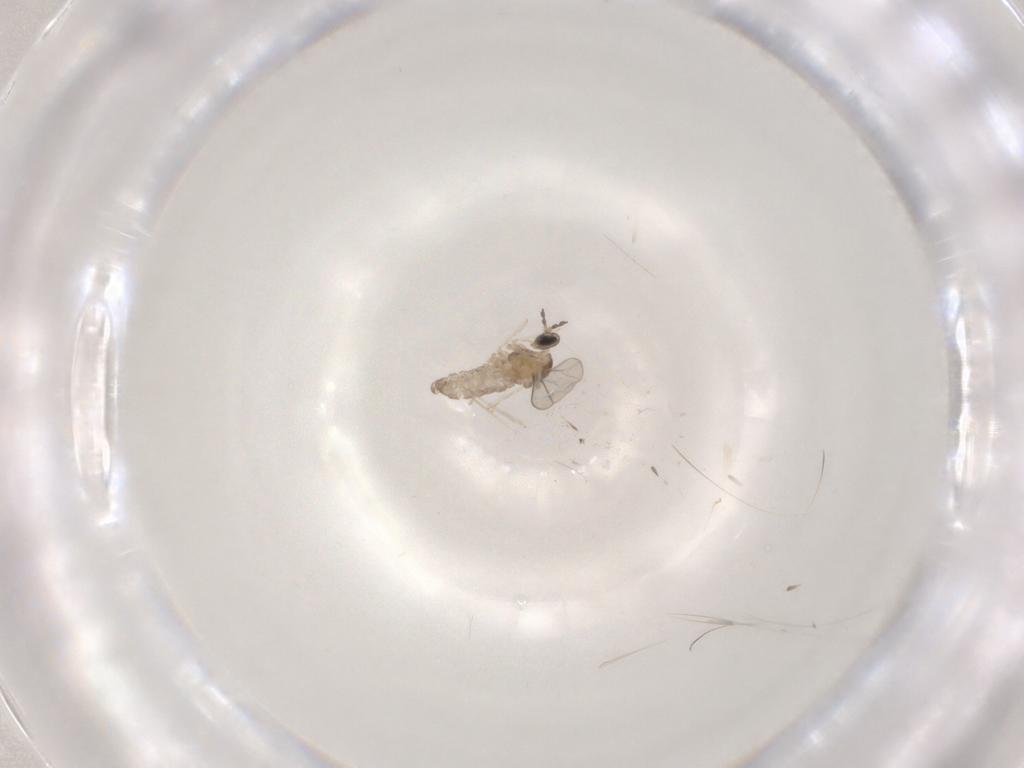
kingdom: Animalia
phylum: Arthropoda
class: Insecta
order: Diptera
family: Cecidomyiidae
